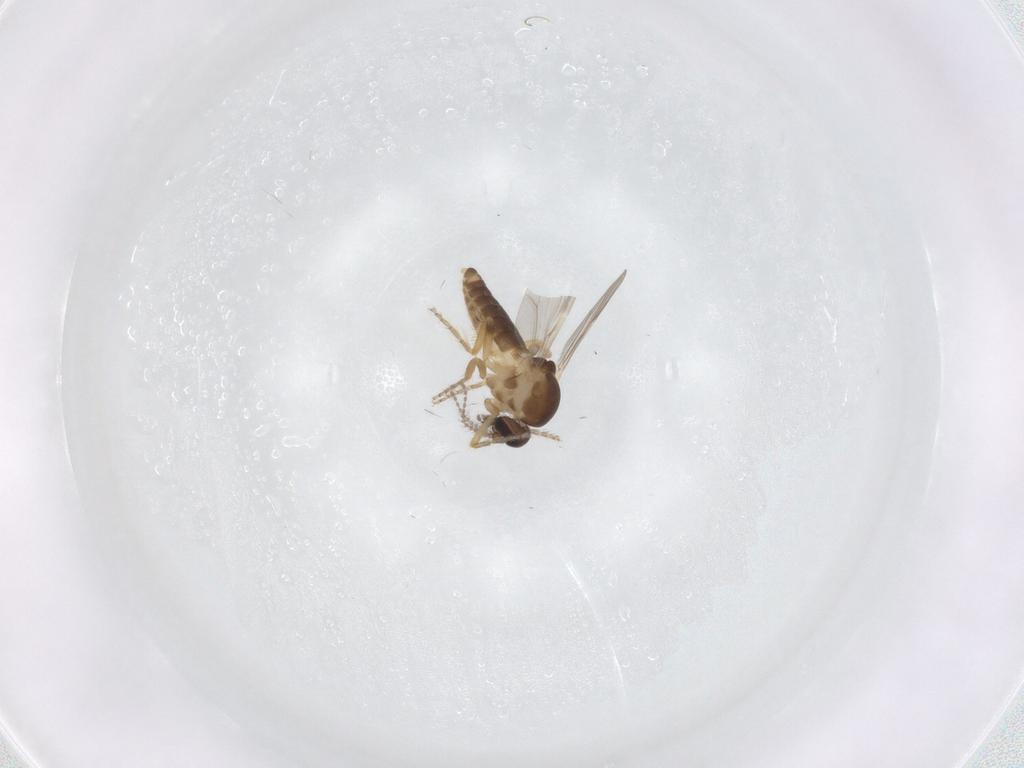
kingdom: Animalia
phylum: Arthropoda
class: Insecta
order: Diptera
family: Ceratopogonidae
